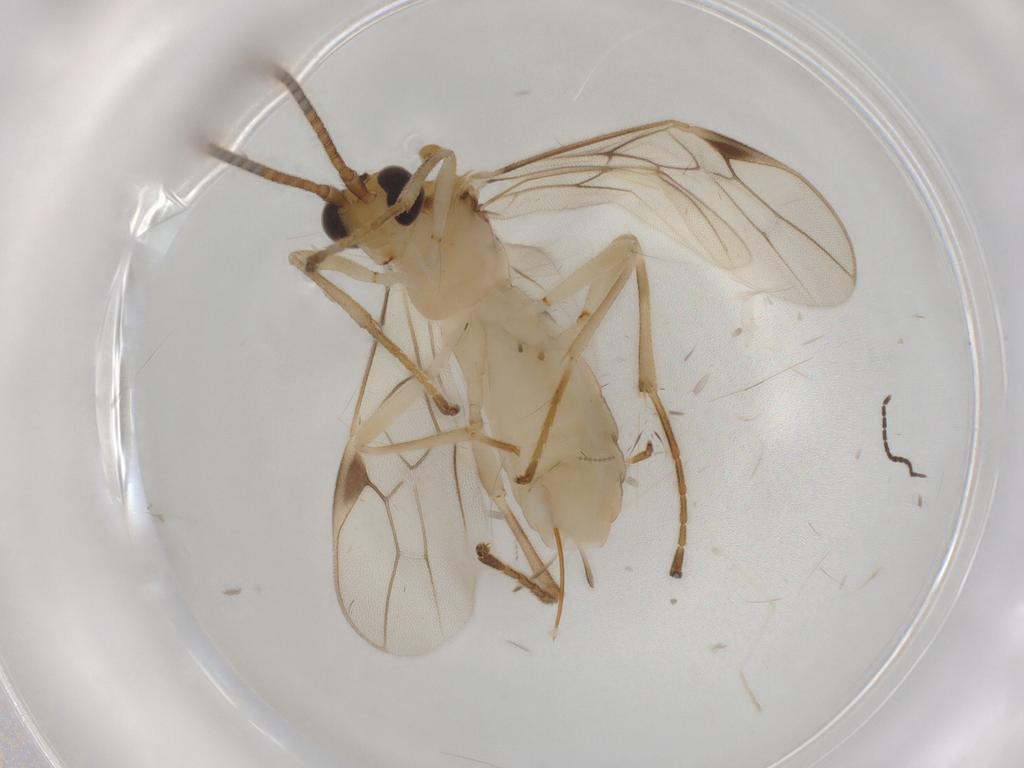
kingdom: Animalia
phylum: Arthropoda
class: Insecta
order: Hymenoptera
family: Braconidae
